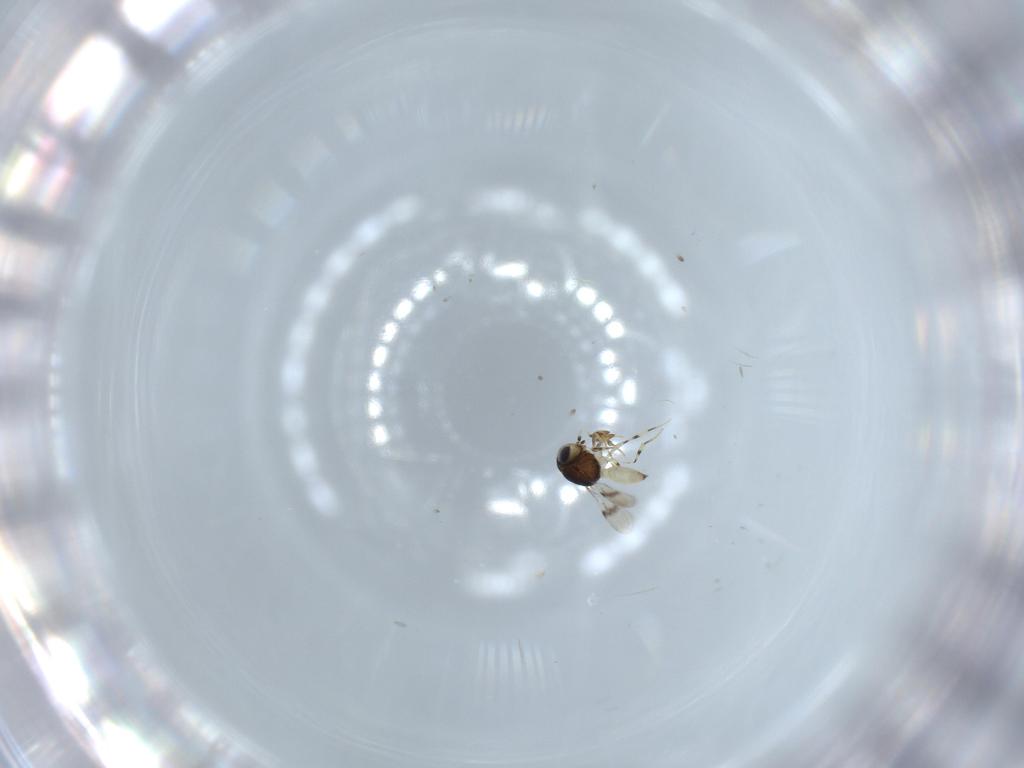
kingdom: Animalia
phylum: Arthropoda
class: Insecta
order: Hymenoptera
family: Scelionidae
